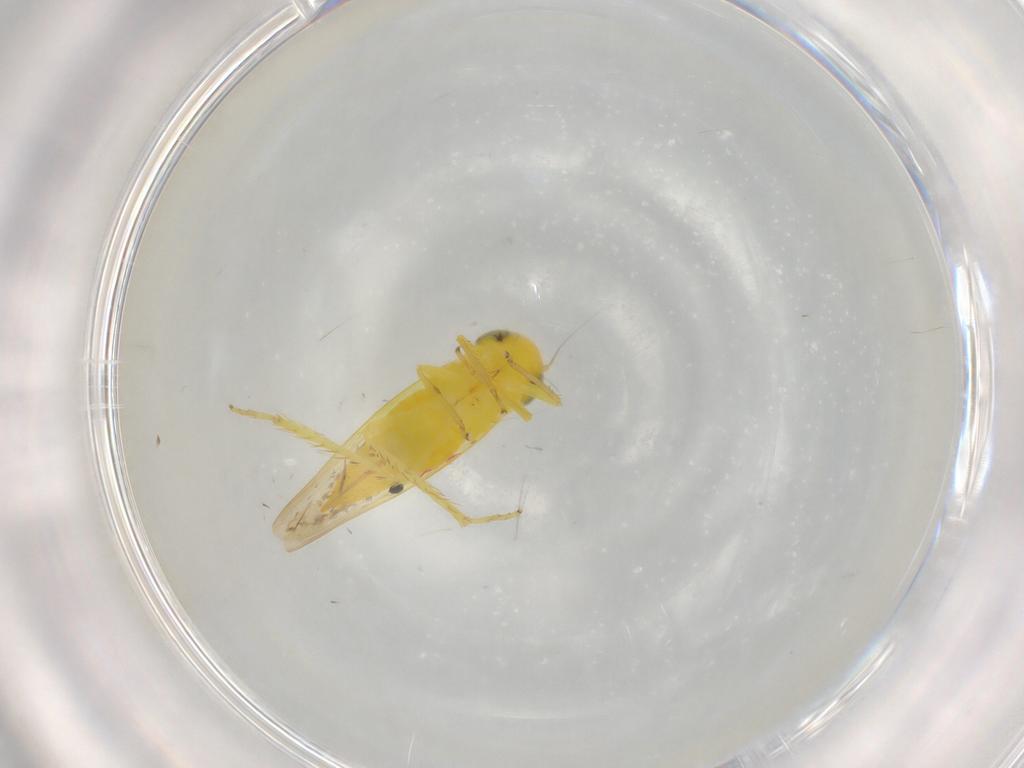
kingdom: Animalia
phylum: Arthropoda
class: Insecta
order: Hemiptera
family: Cicadellidae
